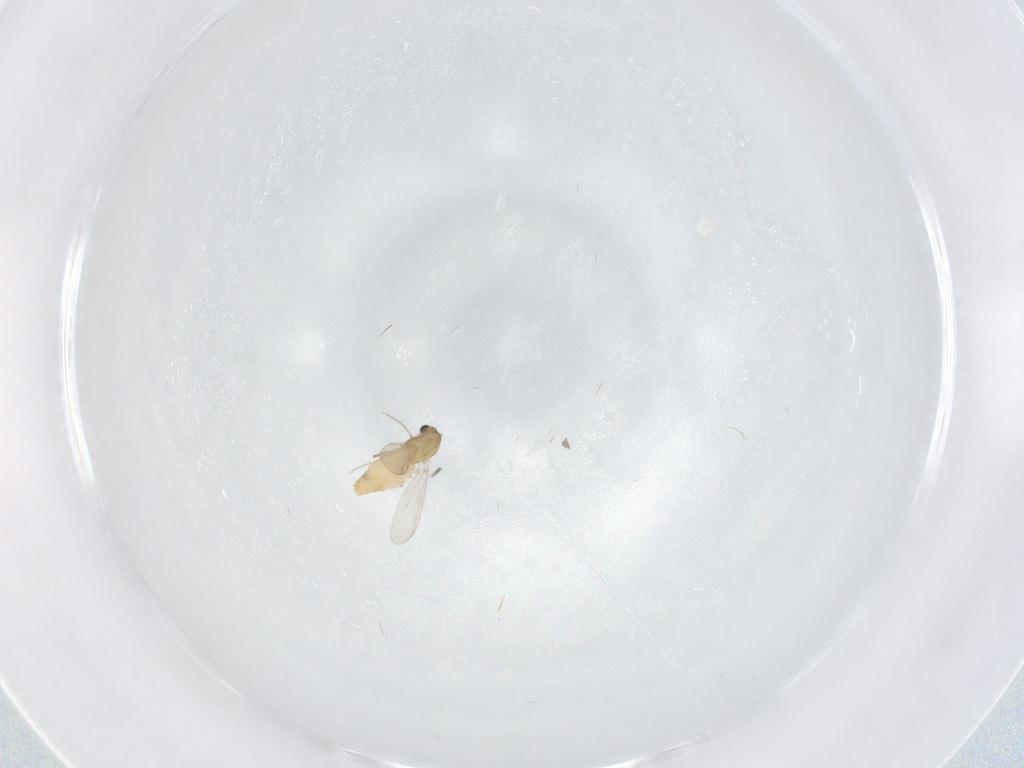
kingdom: Animalia
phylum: Arthropoda
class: Insecta
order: Diptera
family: Chironomidae
